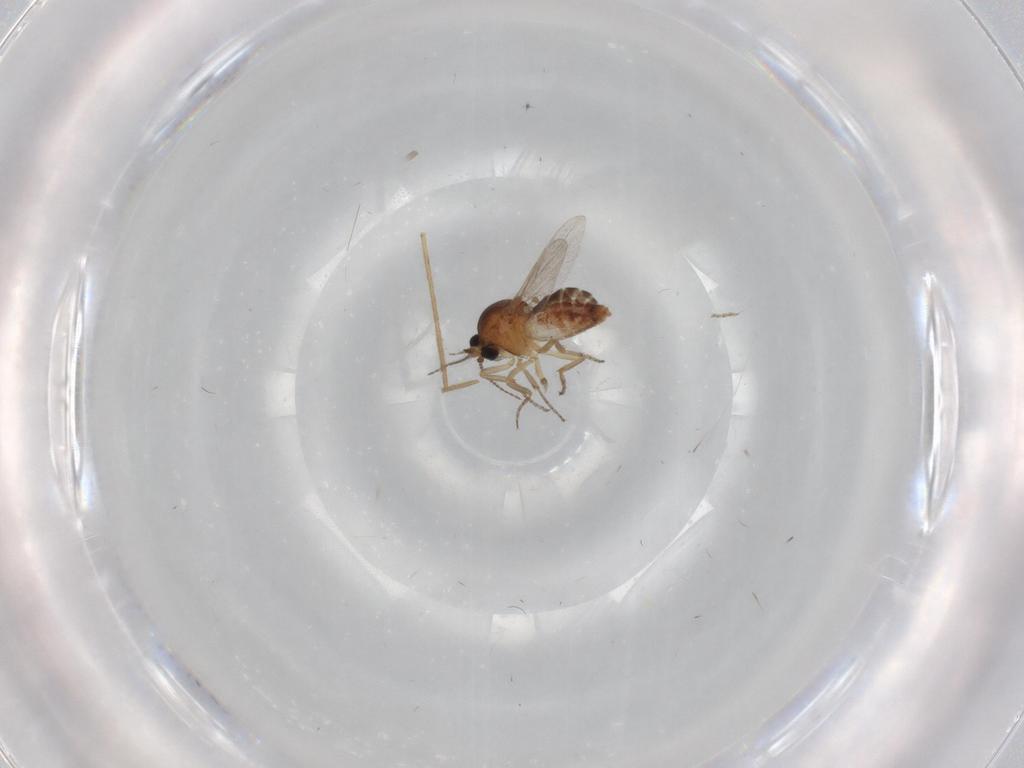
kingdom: Animalia
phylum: Arthropoda
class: Insecta
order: Diptera
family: Ceratopogonidae
